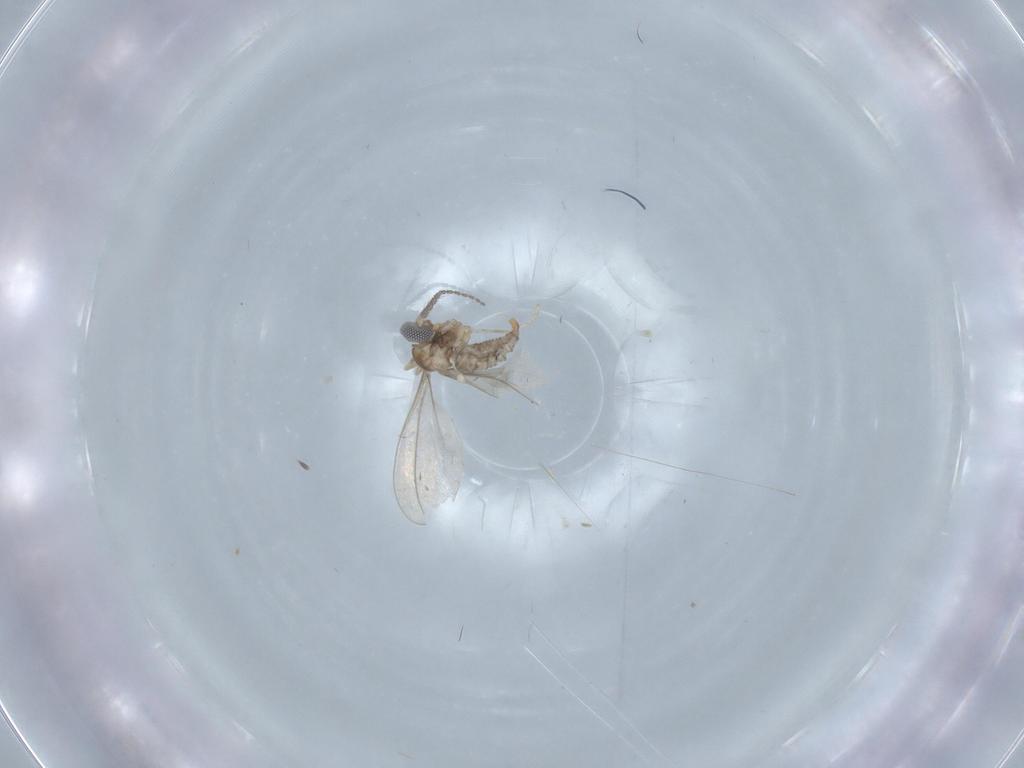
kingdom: Animalia
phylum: Arthropoda
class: Insecta
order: Diptera
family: Chironomidae
